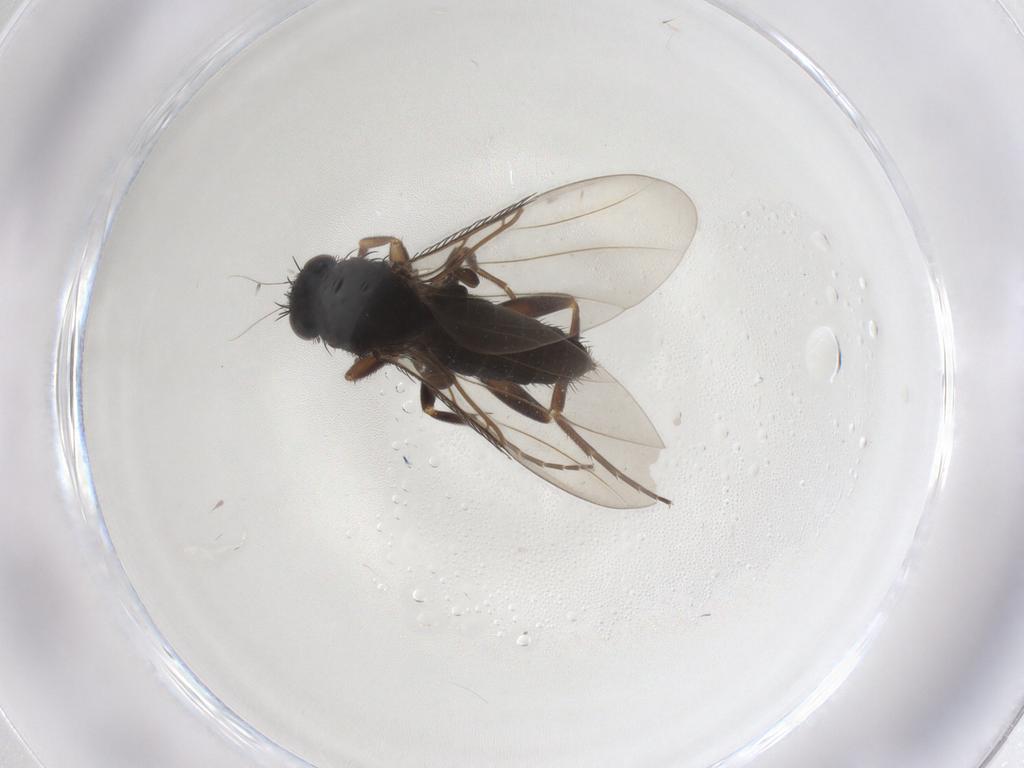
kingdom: Animalia
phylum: Arthropoda
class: Insecta
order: Diptera
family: Phoridae
